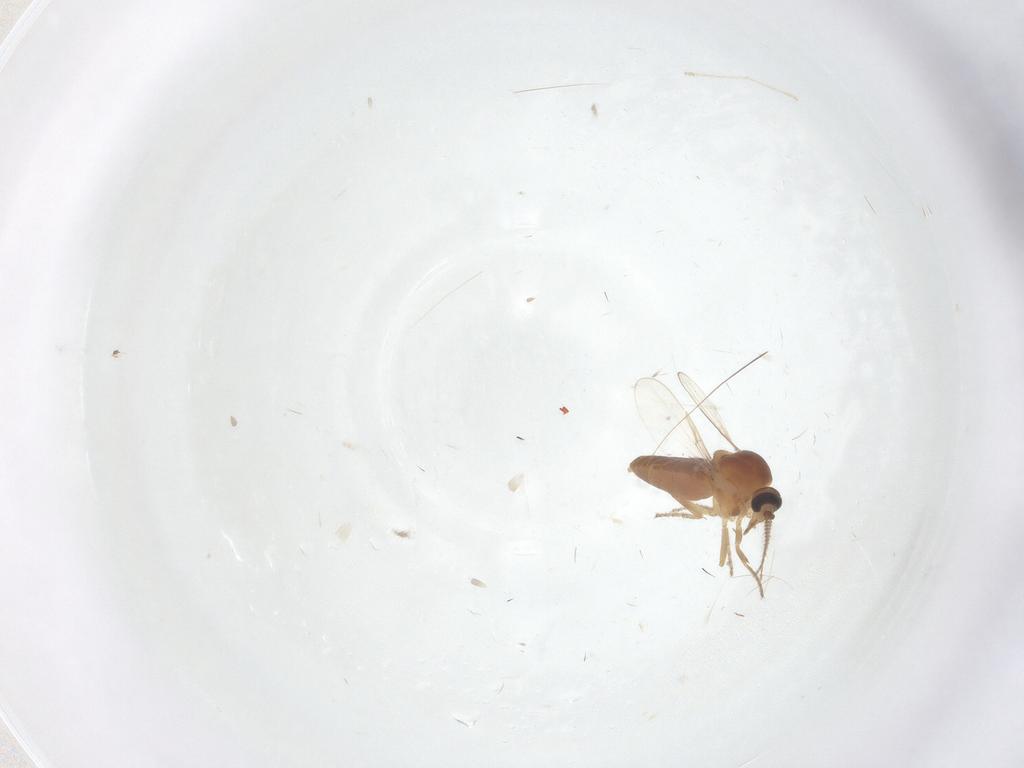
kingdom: Animalia
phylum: Arthropoda
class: Insecta
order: Diptera
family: Ceratopogonidae
